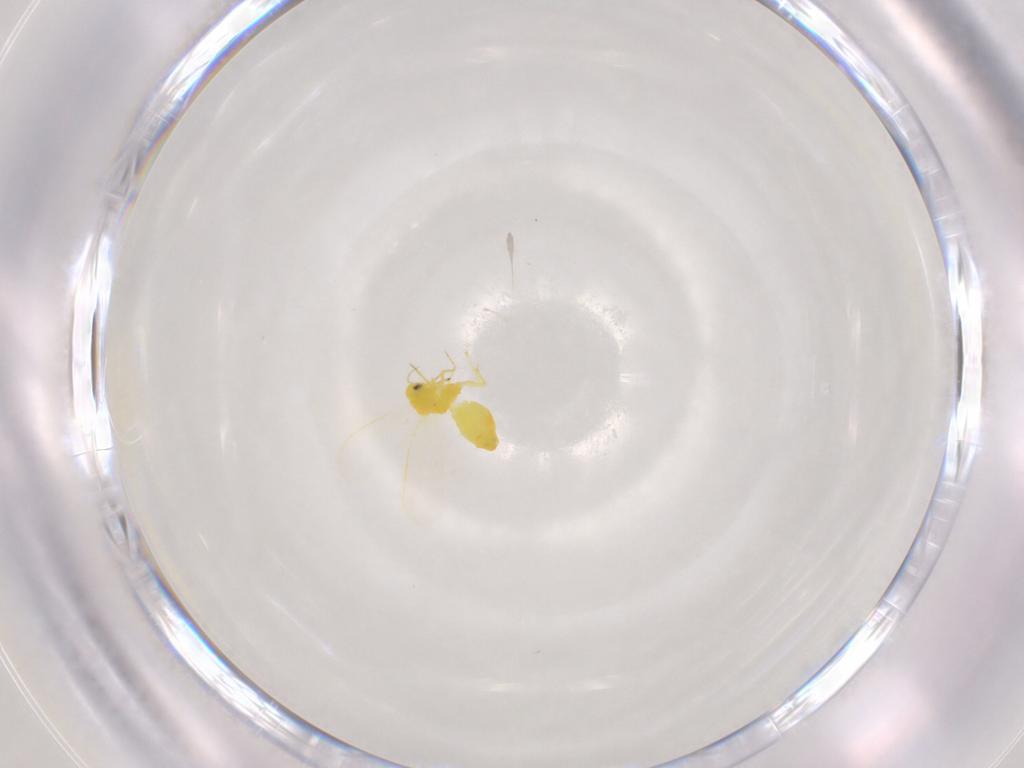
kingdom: Animalia
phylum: Arthropoda
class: Insecta
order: Hemiptera
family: Aleyrodidae
